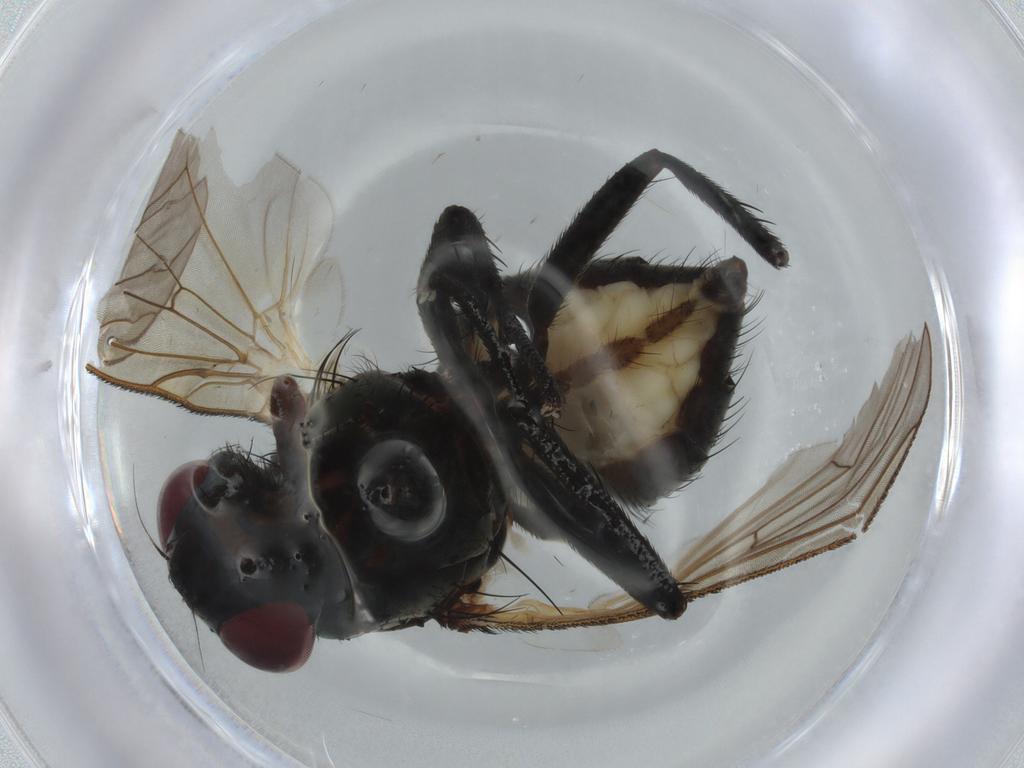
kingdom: Animalia
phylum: Arthropoda
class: Insecta
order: Diptera
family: Anthomyiidae
